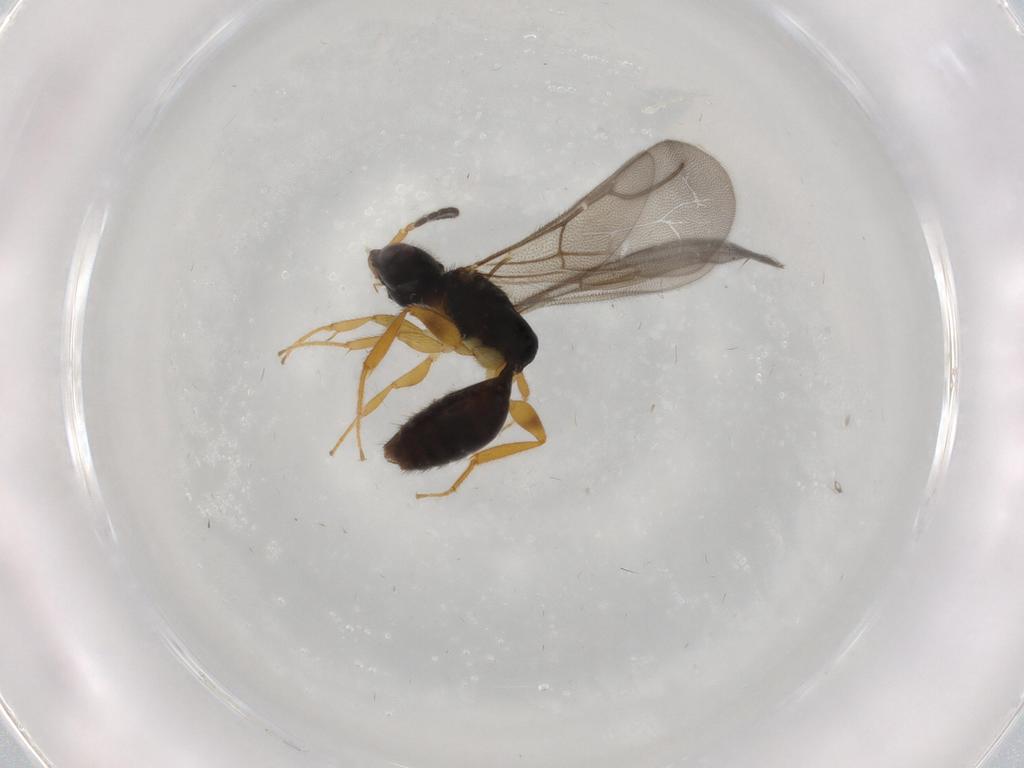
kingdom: Animalia
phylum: Arthropoda
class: Insecta
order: Hymenoptera
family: Bethylidae
